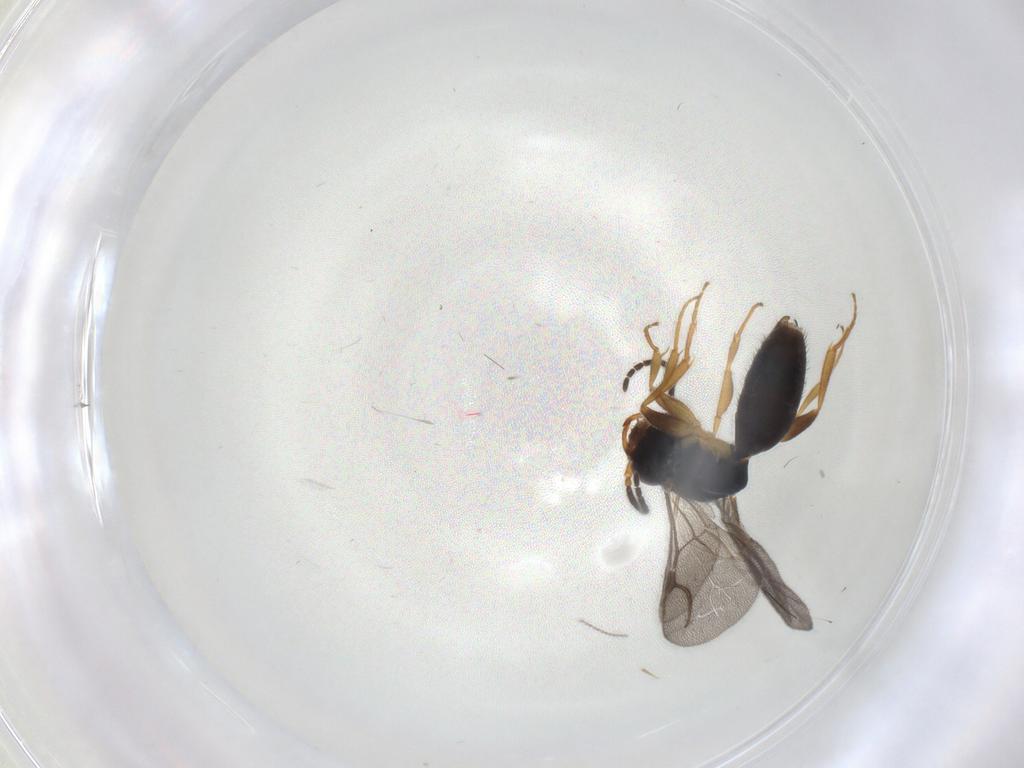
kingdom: Animalia
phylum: Arthropoda
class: Insecta
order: Hymenoptera
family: Bethylidae
